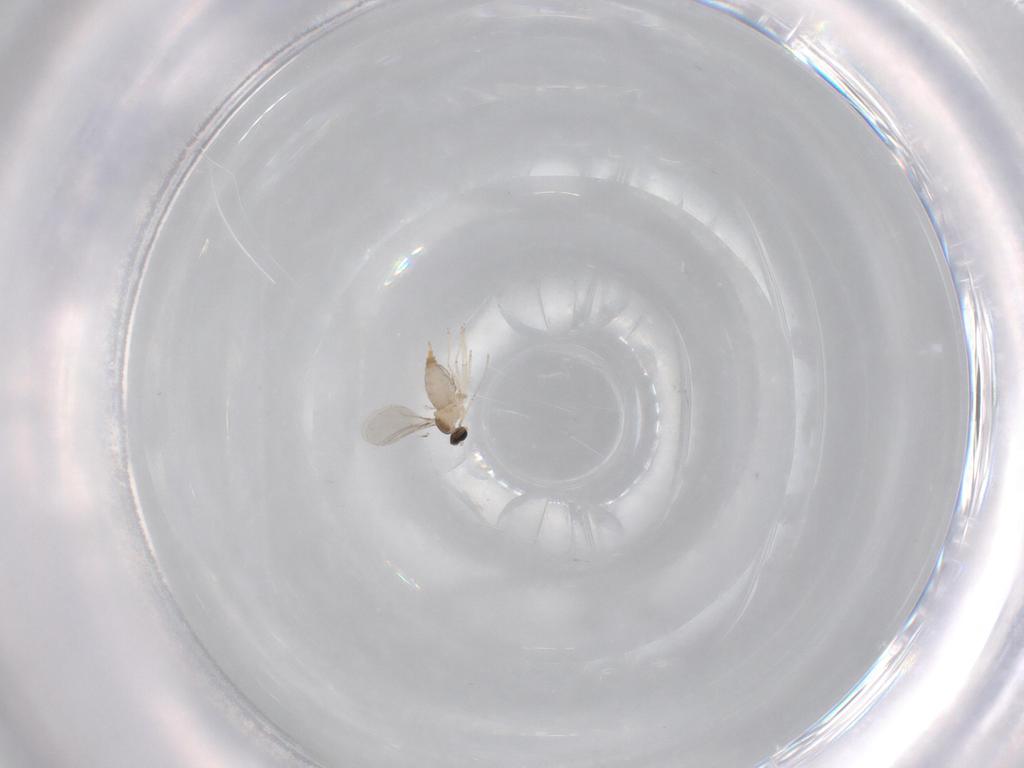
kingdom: Animalia
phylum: Arthropoda
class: Insecta
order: Diptera
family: Cecidomyiidae
